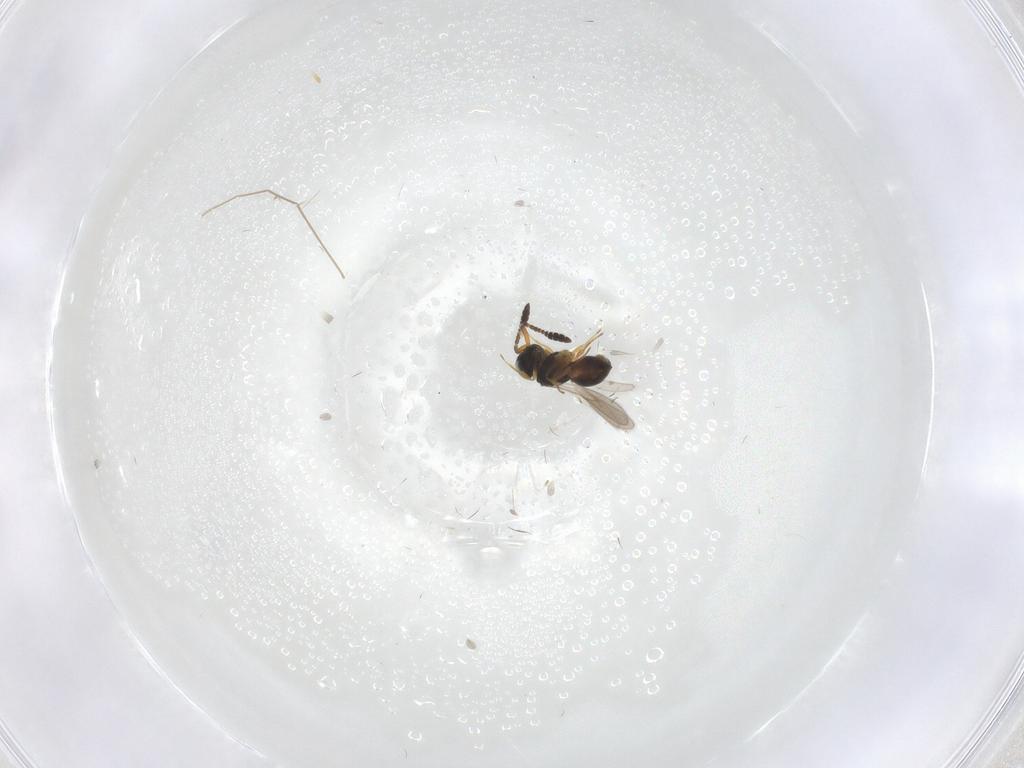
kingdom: Animalia
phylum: Arthropoda
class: Insecta
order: Hymenoptera
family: Scelionidae
